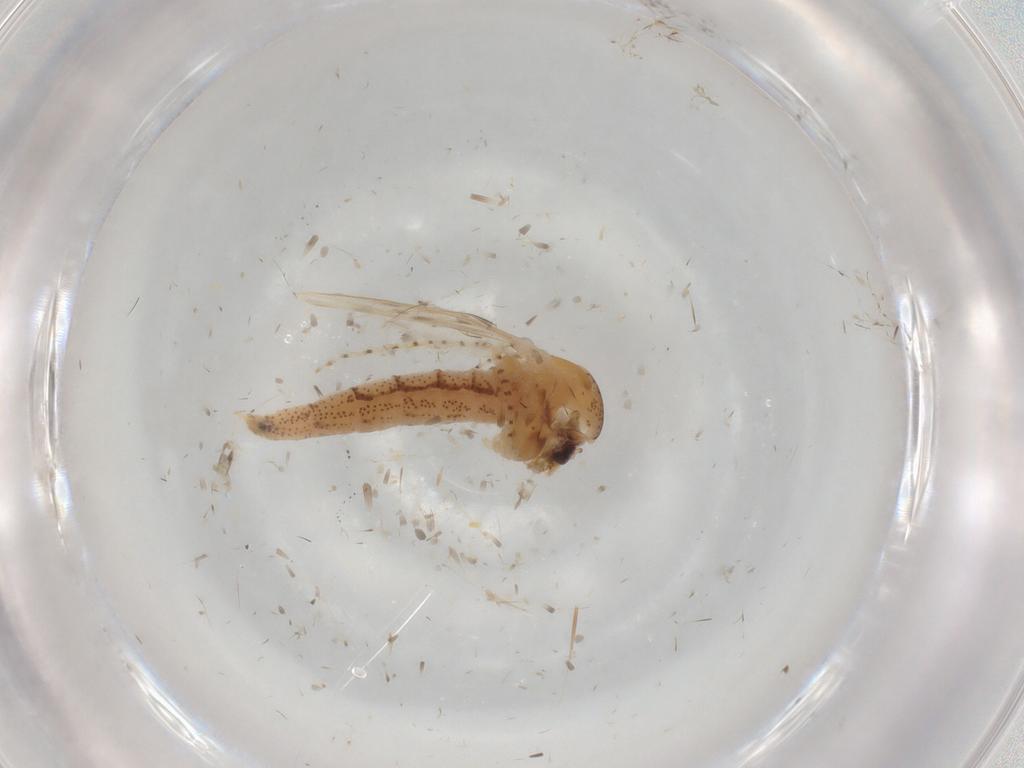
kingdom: Animalia
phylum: Arthropoda
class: Insecta
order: Diptera
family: Chaoboridae
